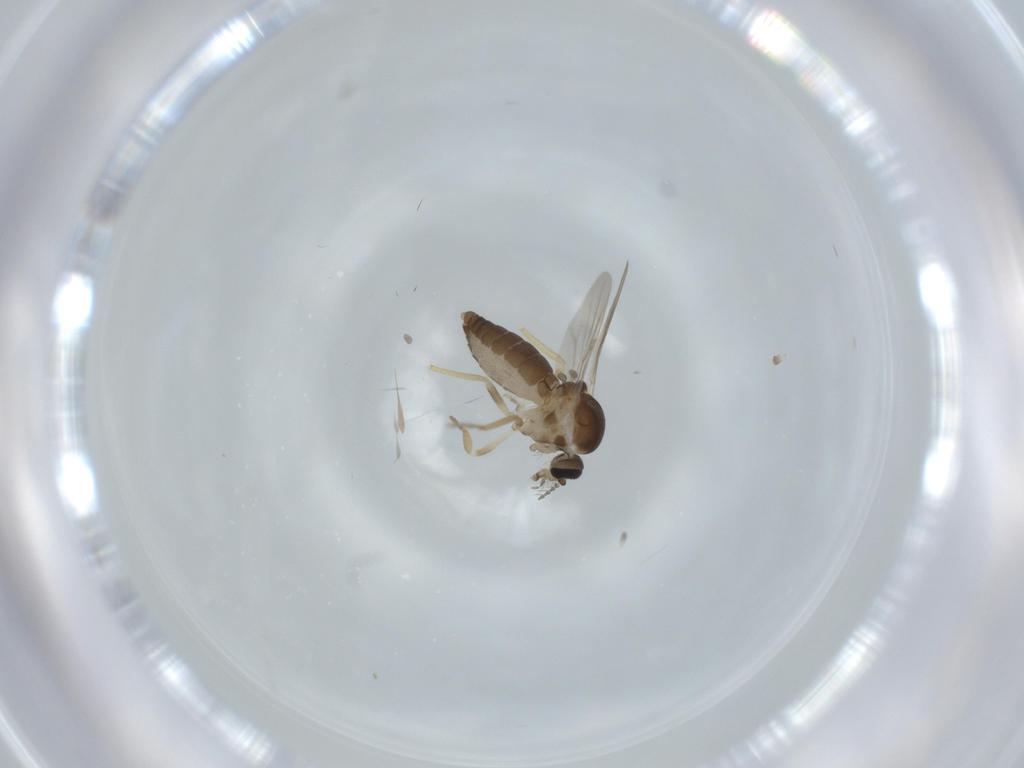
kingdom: Animalia
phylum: Arthropoda
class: Insecta
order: Diptera
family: Ceratopogonidae
